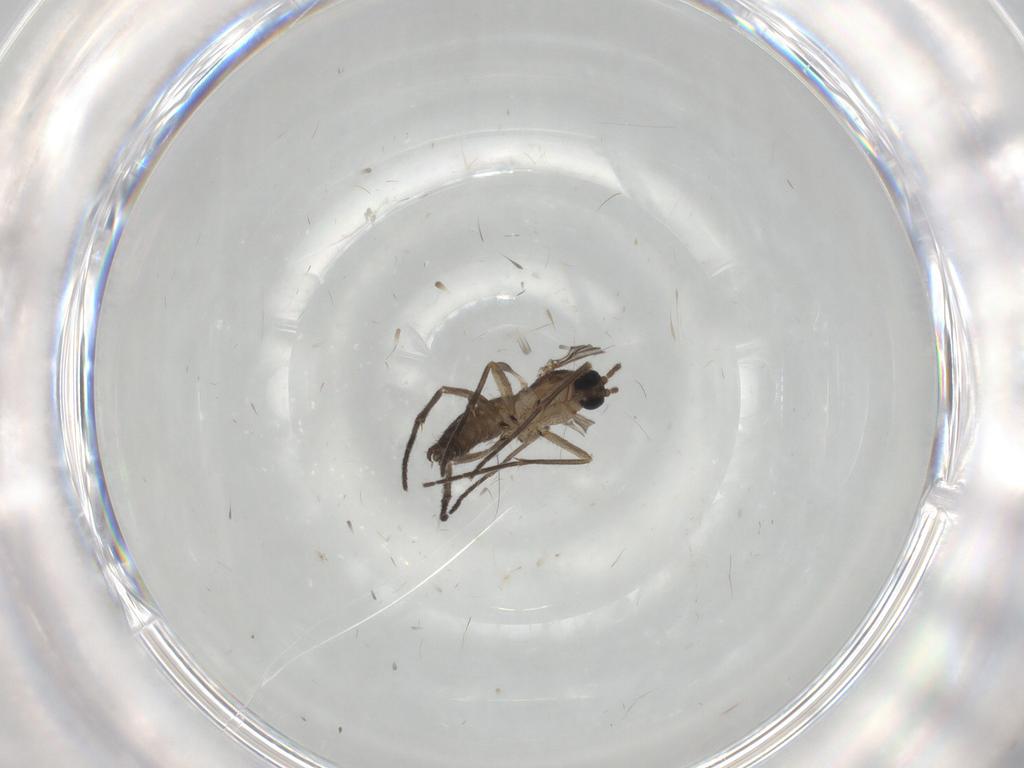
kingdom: Animalia
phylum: Arthropoda
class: Insecta
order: Diptera
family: Sciaridae
